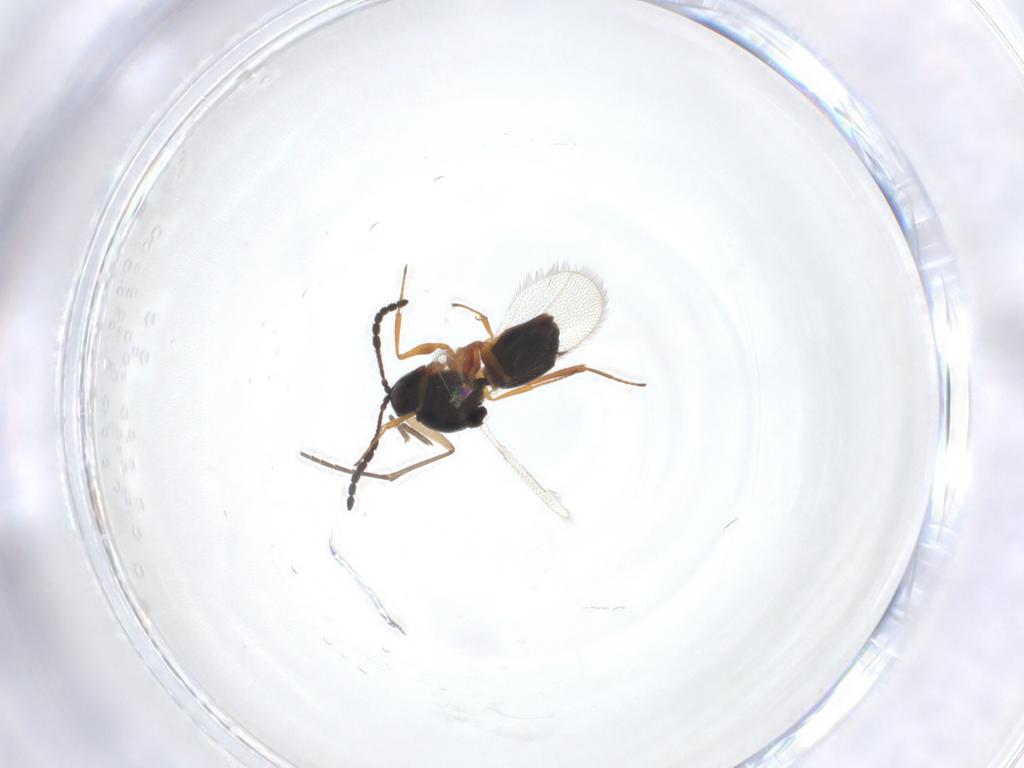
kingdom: Animalia
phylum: Arthropoda
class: Insecta
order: Hymenoptera
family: Figitidae
